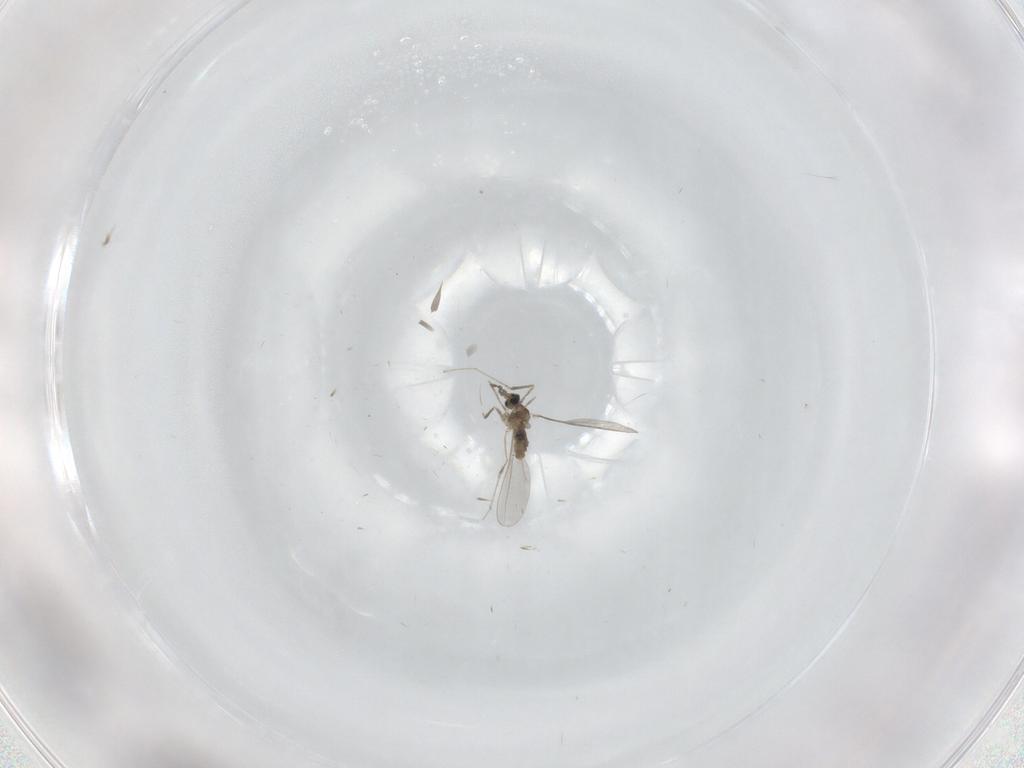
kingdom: Animalia
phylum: Arthropoda
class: Insecta
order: Diptera
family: Limoniidae
